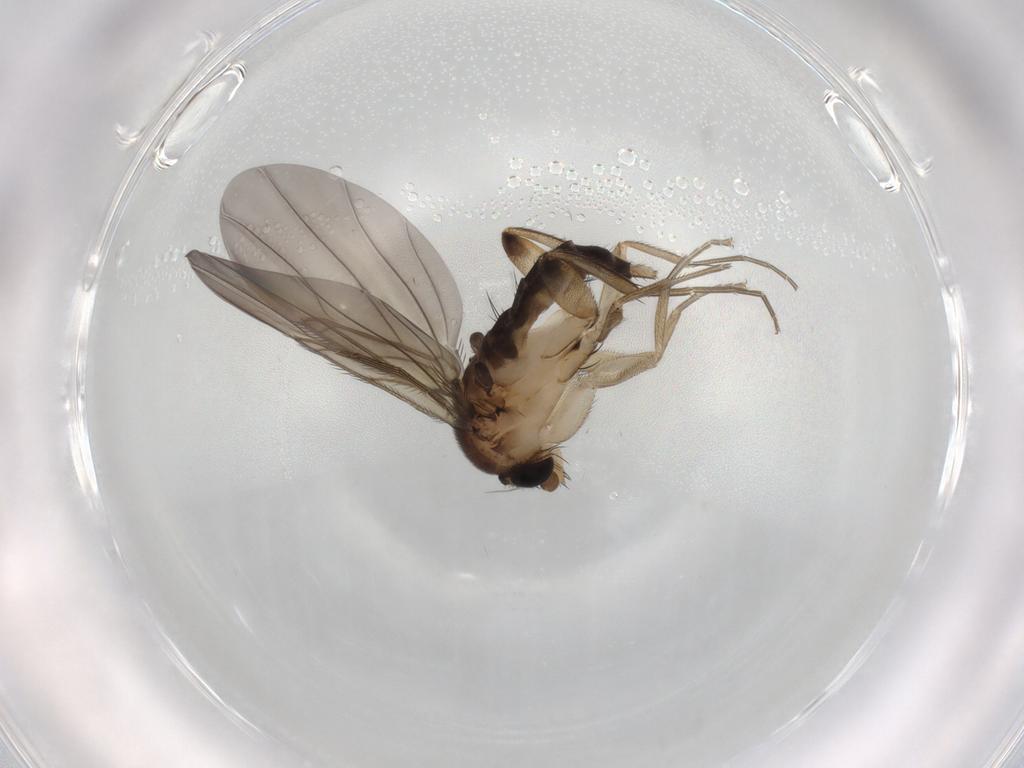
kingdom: Animalia
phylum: Arthropoda
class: Insecta
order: Diptera
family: Phoridae
